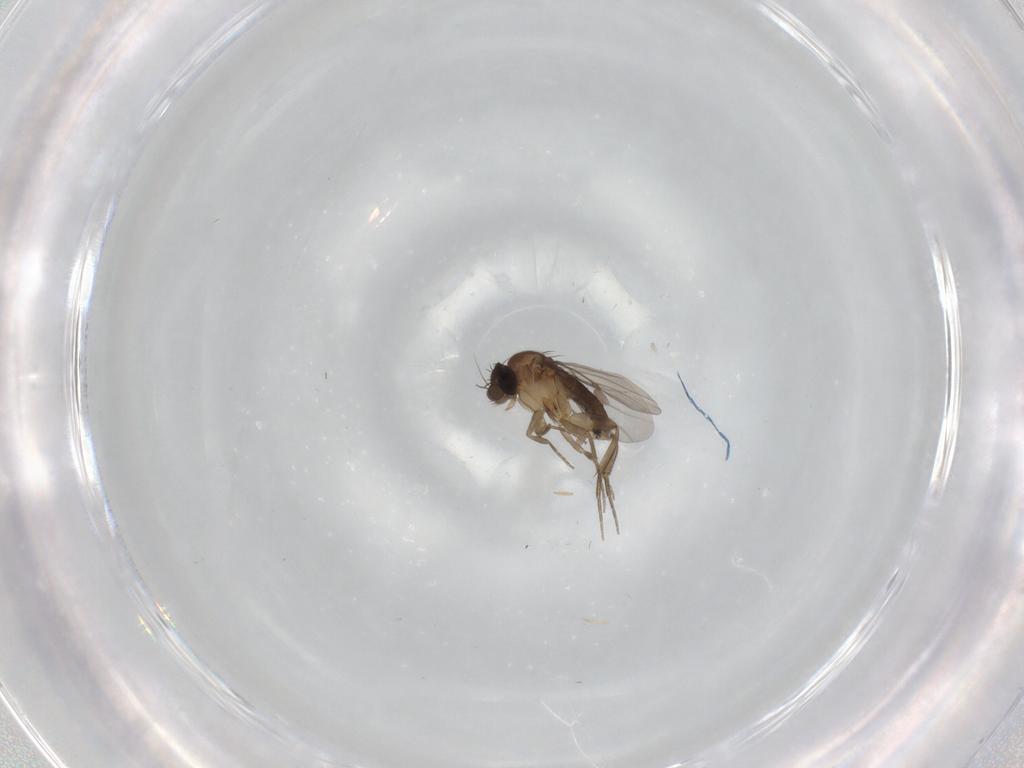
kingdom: Animalia
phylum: Arthropoda
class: Insecta
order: Diptera
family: Phoridae
